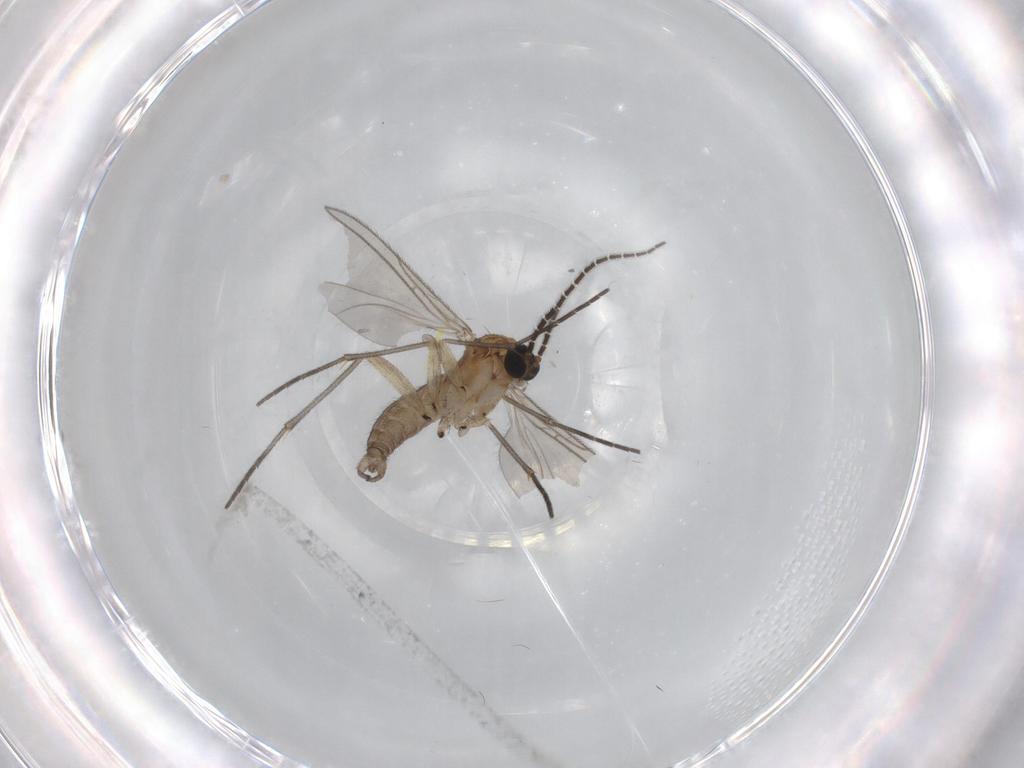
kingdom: Animalia
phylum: Arthropoda
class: Insecta
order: Diptera
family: Sciaridae
